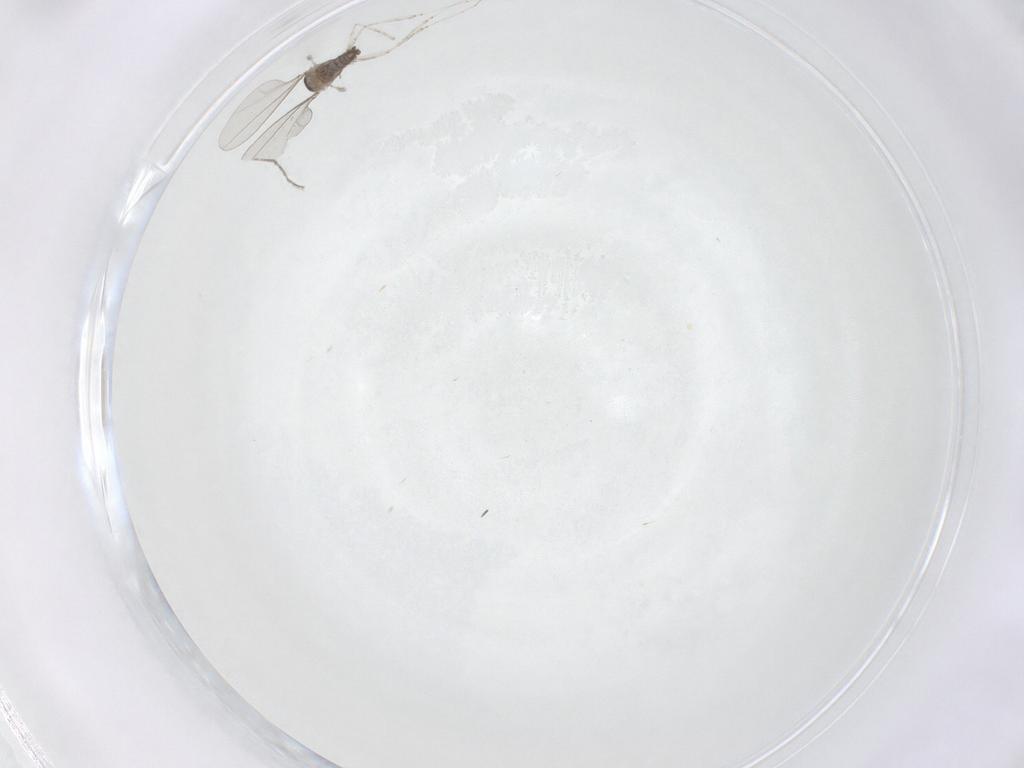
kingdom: Animalia
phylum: Arthropoda
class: Insecta
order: Diptera
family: Cecidomyiidae
